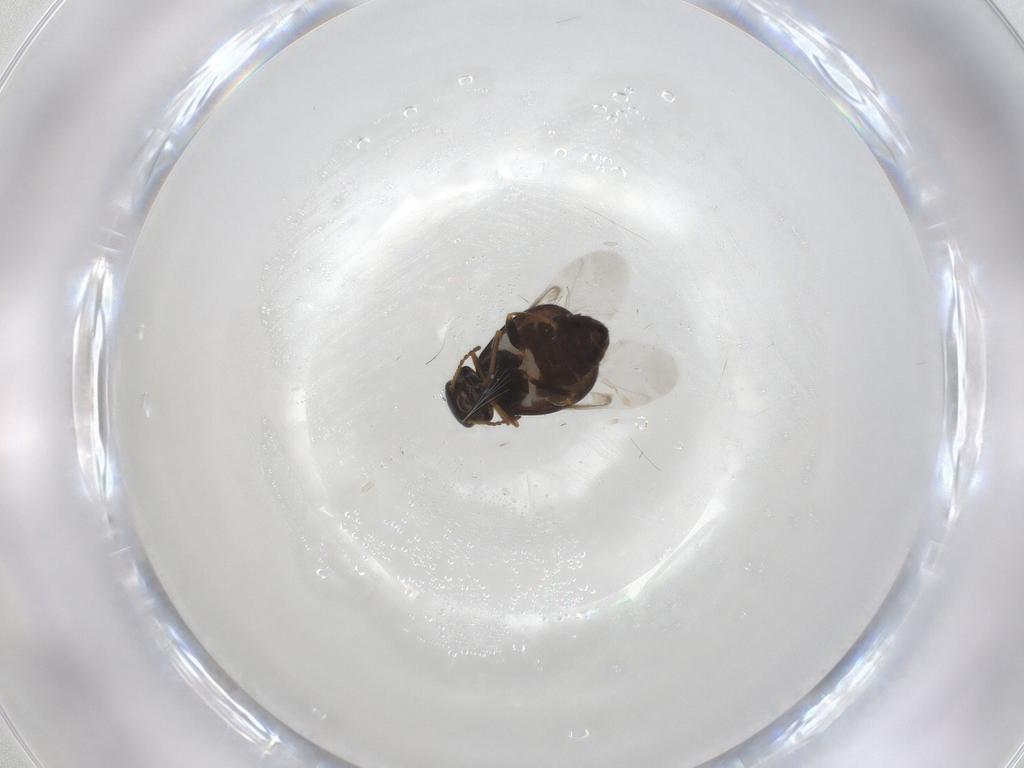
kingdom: Animalia
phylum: Arthropoda
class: Insecta
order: Coleoptera
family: Melyridae
